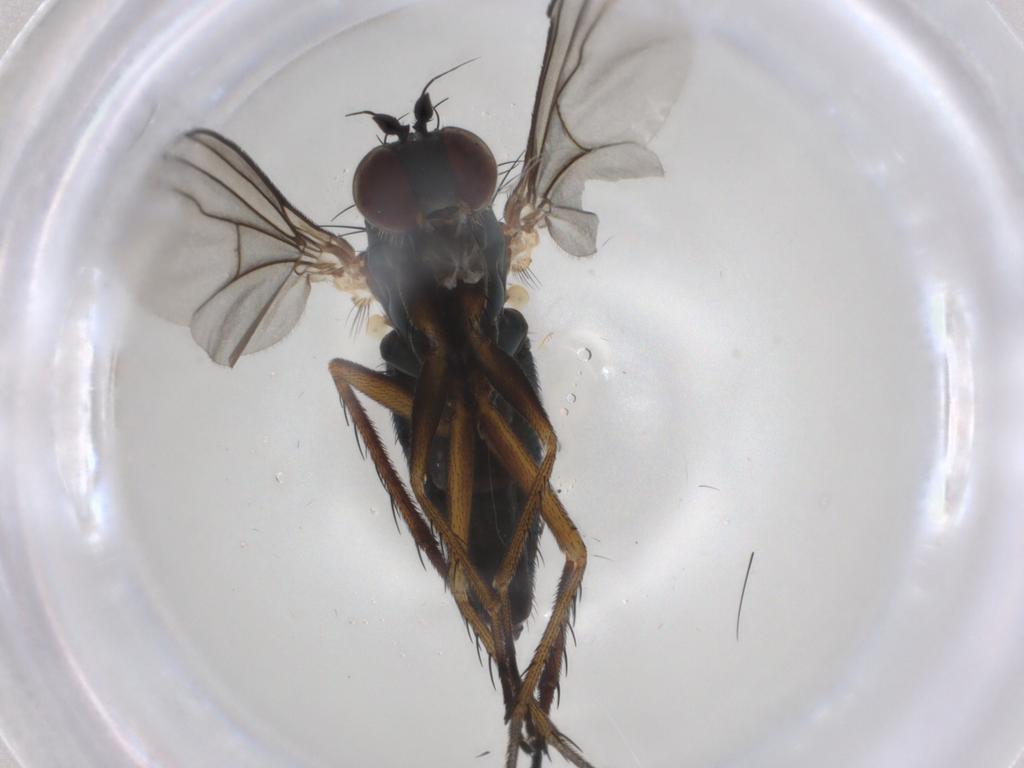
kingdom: Animalia
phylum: Arthropoda
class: Insecta
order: Diptera
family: Dolichopodidae
